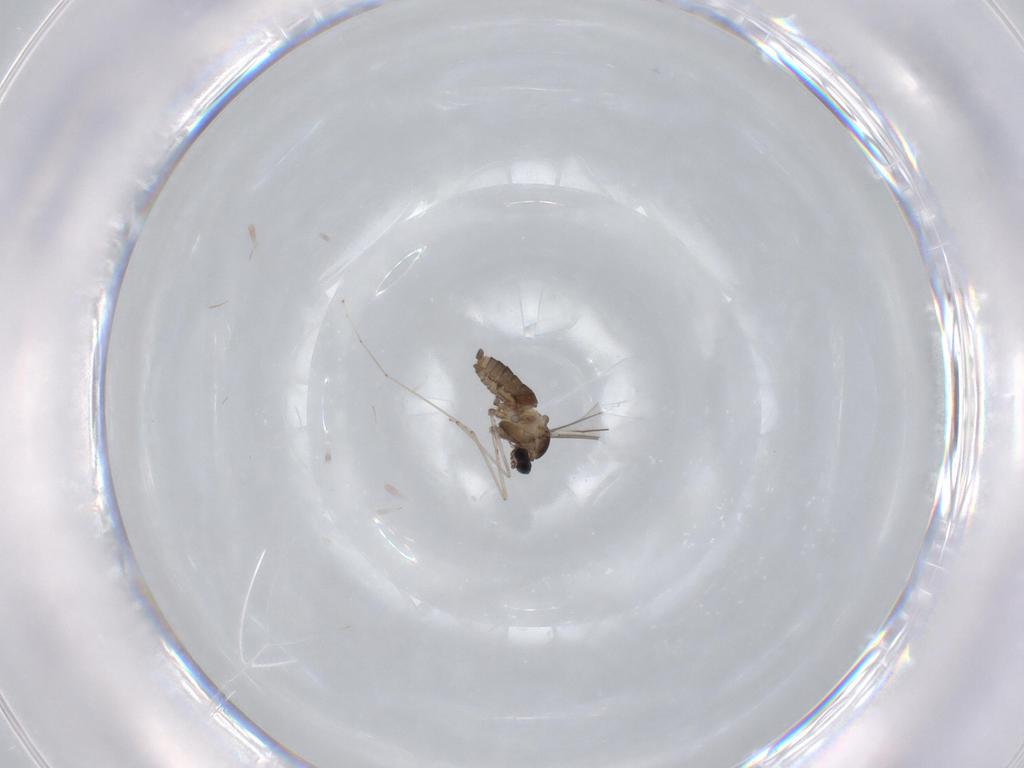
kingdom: Animalia
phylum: Arthropoda
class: Insecta
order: Diptera
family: Cecidomyiidae
